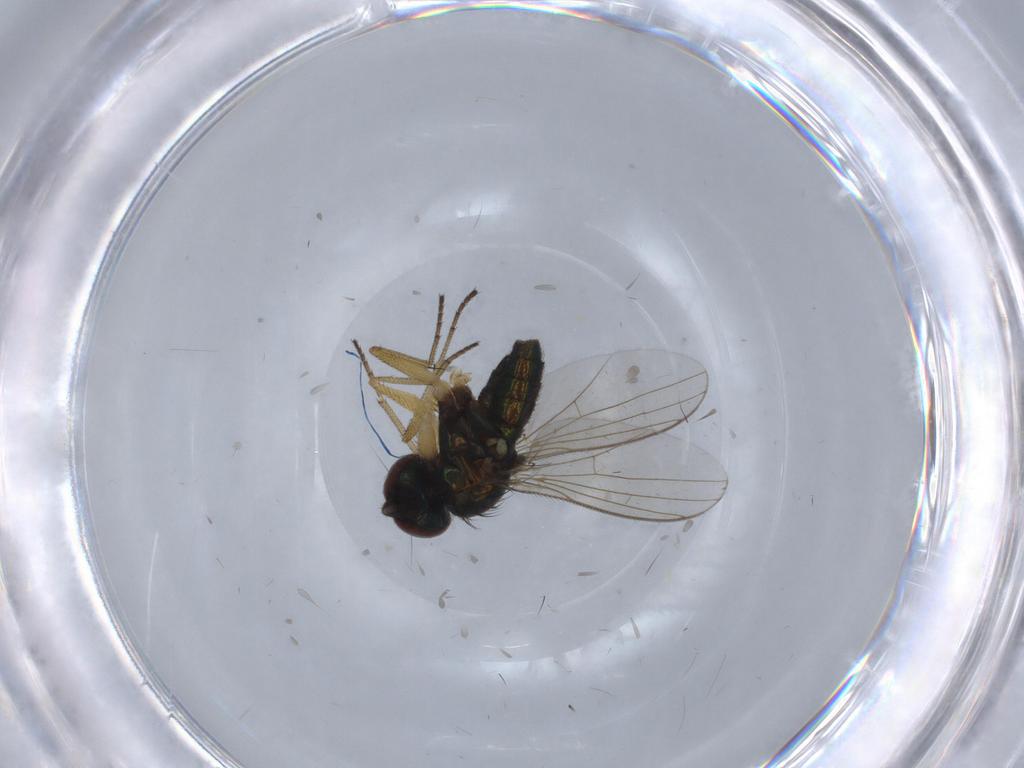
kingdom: Animalia
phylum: Arthropoda
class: Insecta
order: Diptera
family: Dolichopodidae
